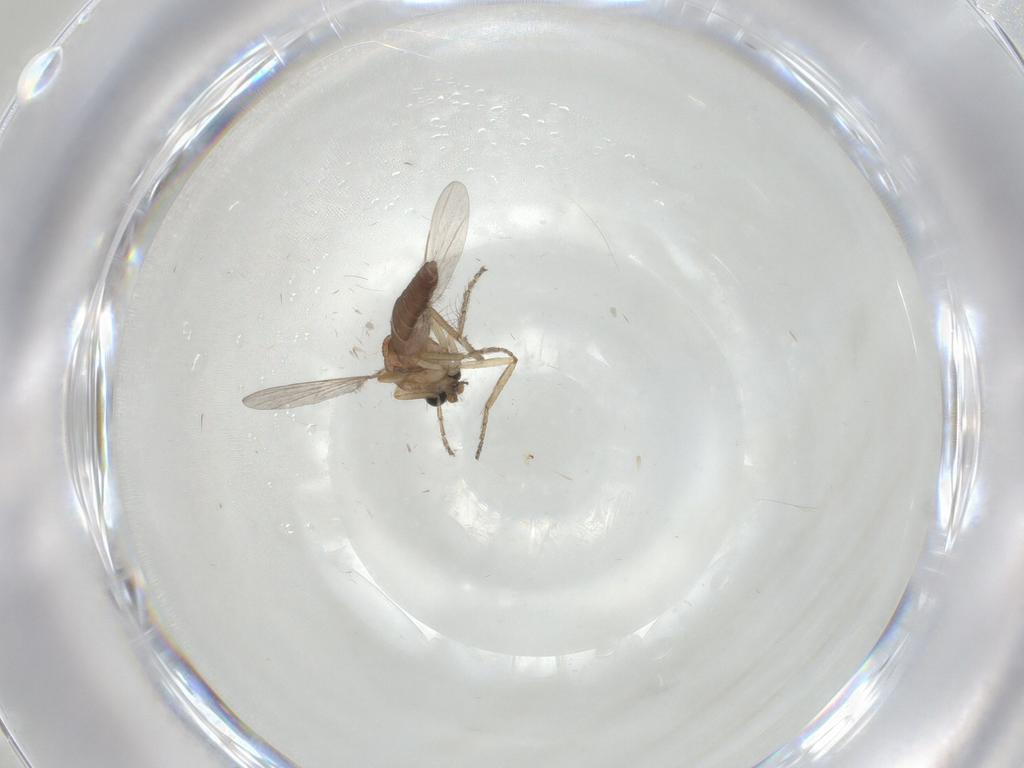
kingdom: Animalia
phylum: Arthropoda
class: Insecta
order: Diptera
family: Ceratopogonidae
